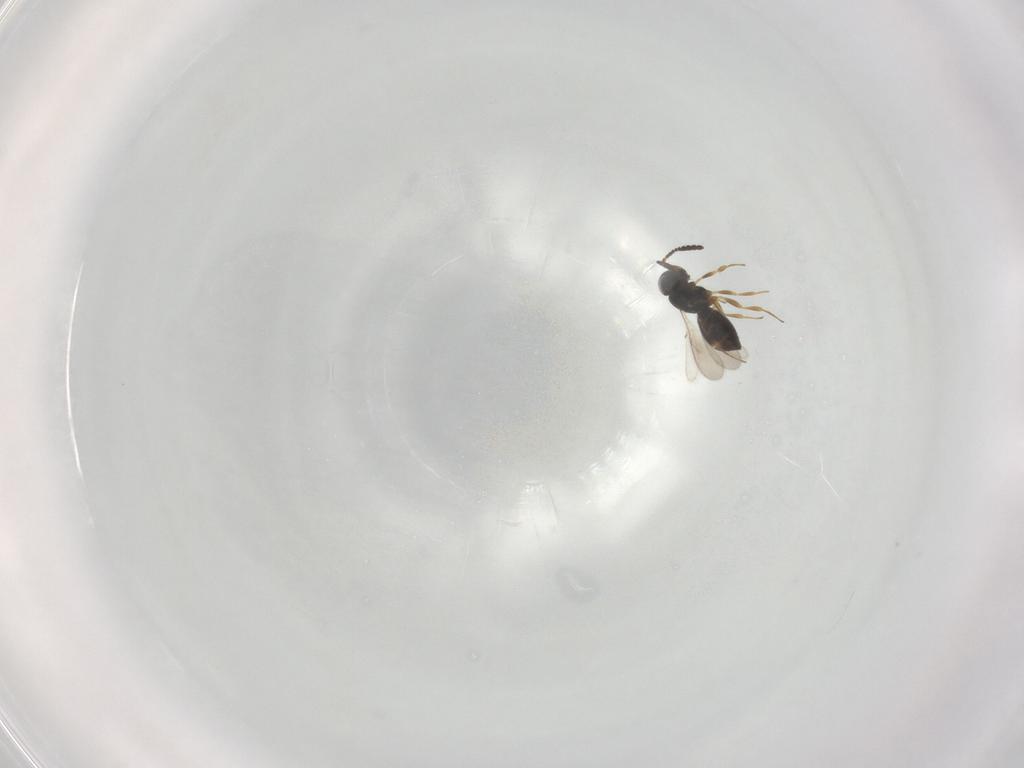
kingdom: Animalia
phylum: Arthropoda
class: Insecta
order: Hymenoptera
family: Scelionidae
